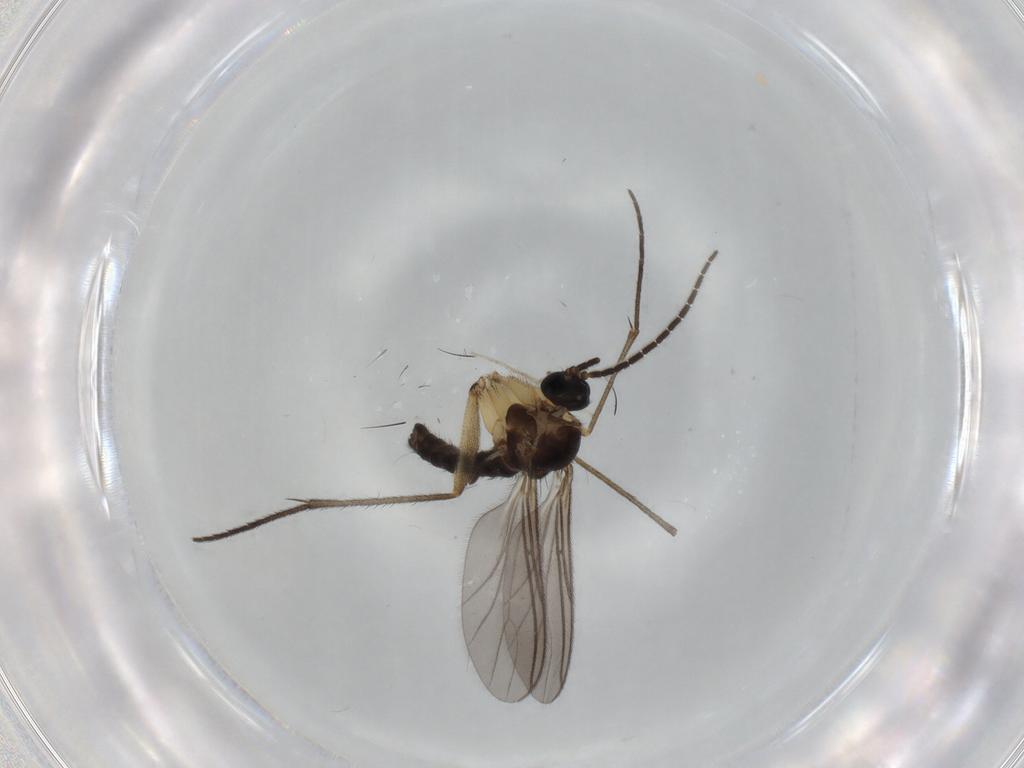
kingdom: Animalia
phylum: Arthropoda
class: Insecta
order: Diptera
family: Sciaridae
